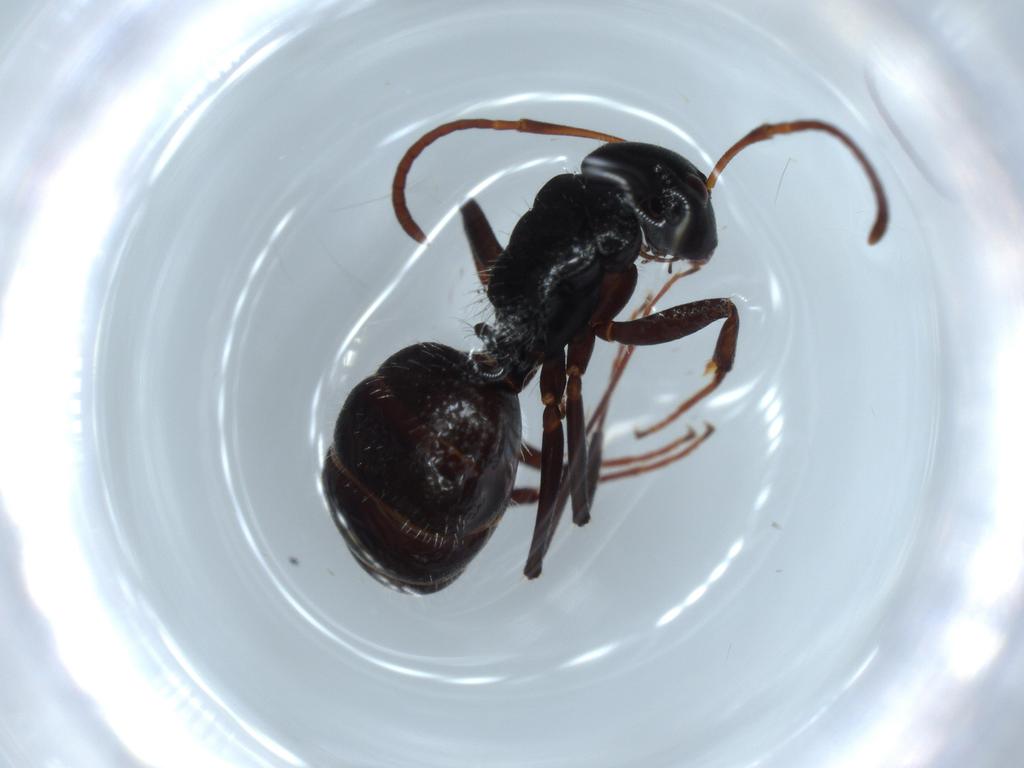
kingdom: Animalia
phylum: Arthropoda
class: Insecta
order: Hymenoptera
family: Formicidae
